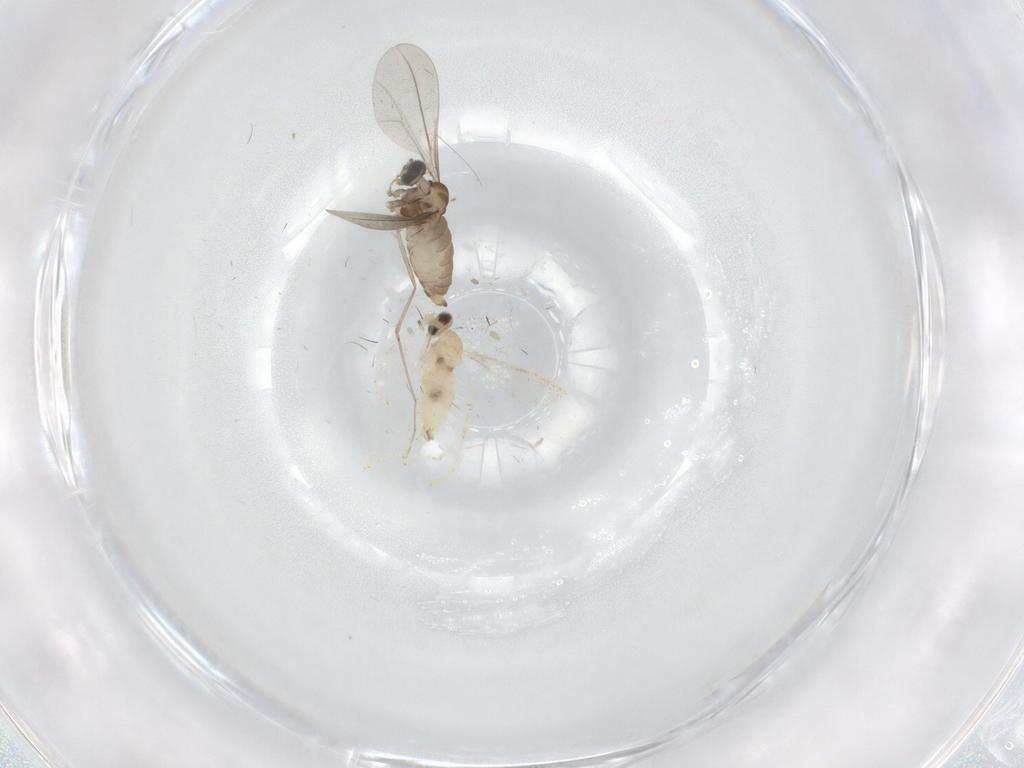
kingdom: Animalia
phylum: Arthropoda
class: Insecta
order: Diptera
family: Cecidomyiidae
